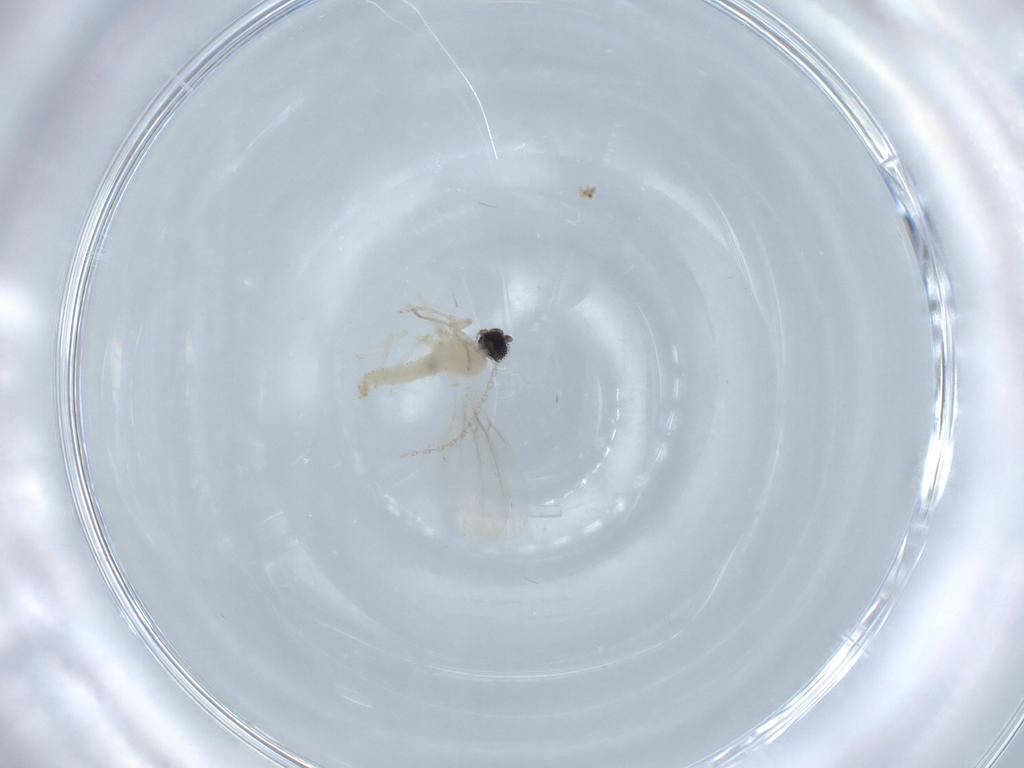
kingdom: Animalia
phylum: Arthropoda
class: Insecta
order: Diptera
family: Cecidomyiidae
